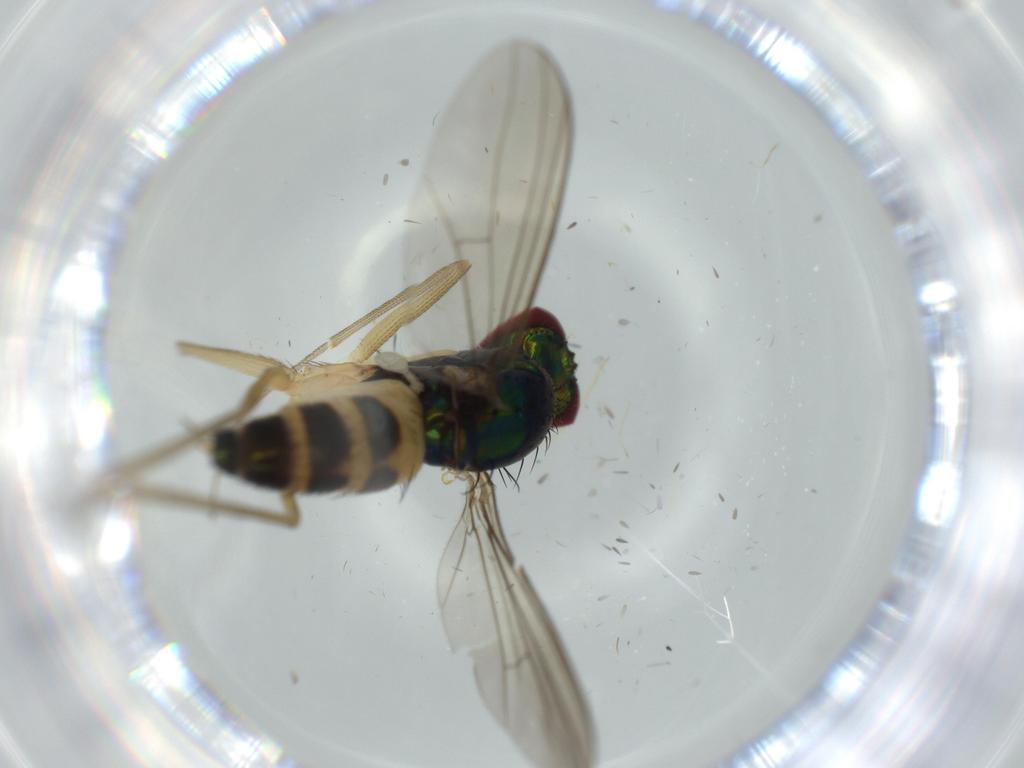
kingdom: Animalia
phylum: Arthropoda
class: Insecta
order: Diptera
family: Dolichopodidae
